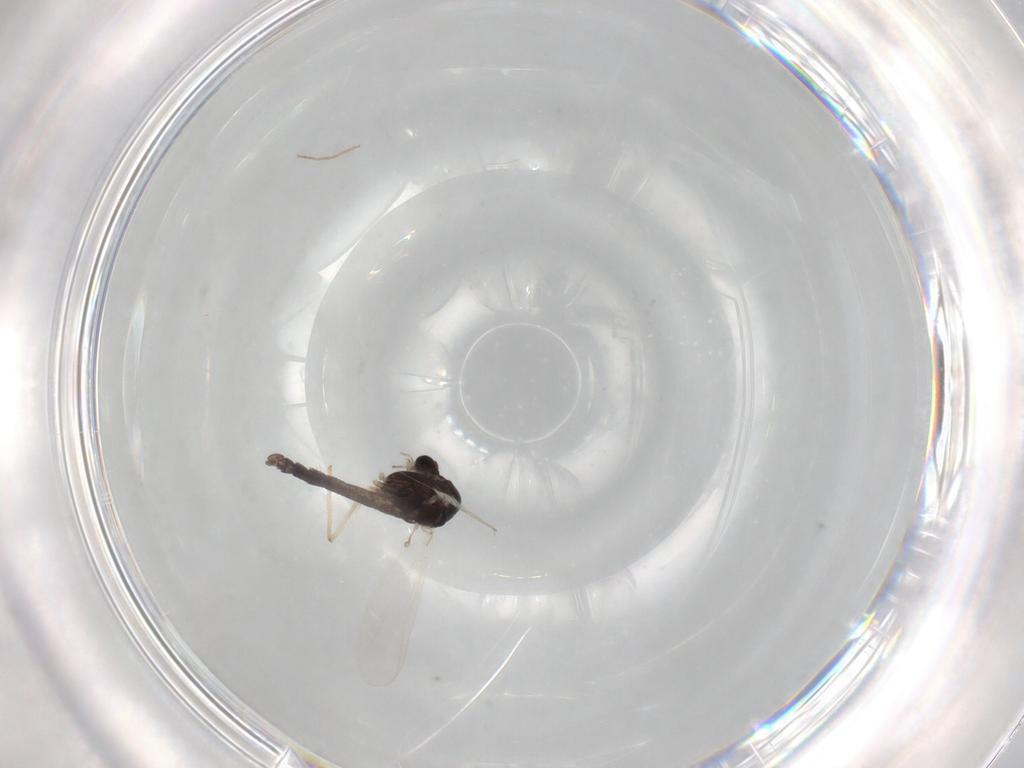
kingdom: Animalia
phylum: Arthropoda
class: Insecta
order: Diptera
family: Chironomidae
